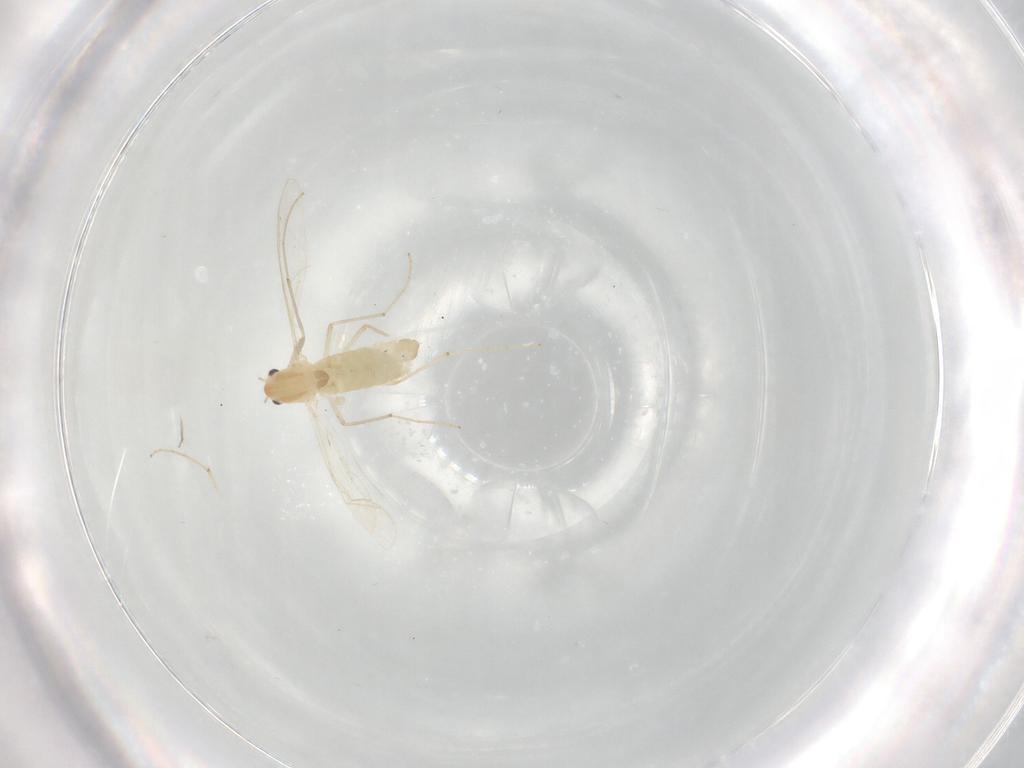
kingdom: Animalia
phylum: Arthropoda
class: Insecta
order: Diptera
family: Chironomidae
